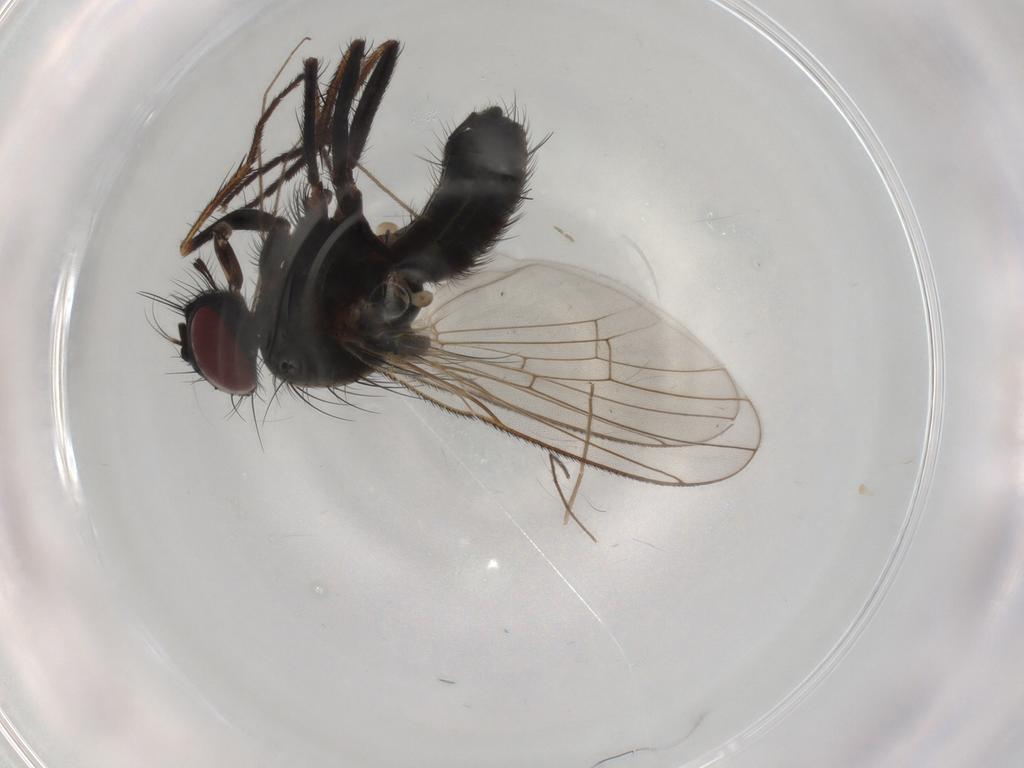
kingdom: Animalia
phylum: Arthropoda
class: Insecta
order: Diptera
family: Muscidae
